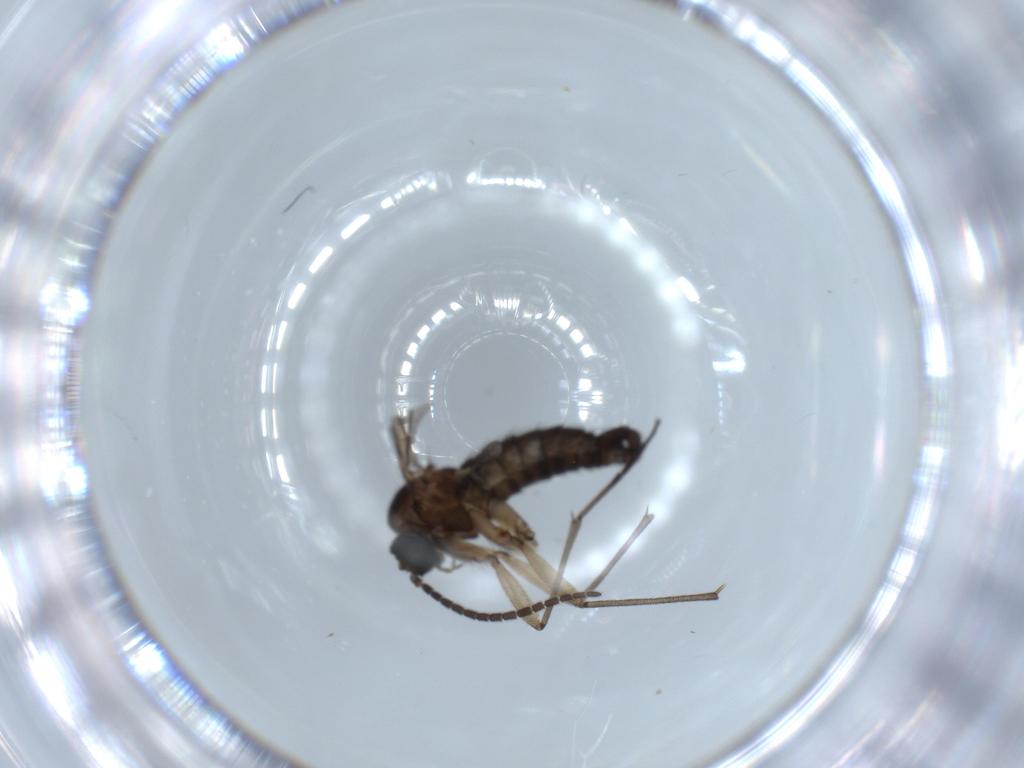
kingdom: Animalia
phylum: Arthropoda
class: Insecta
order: Diptera
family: Sciaridae
